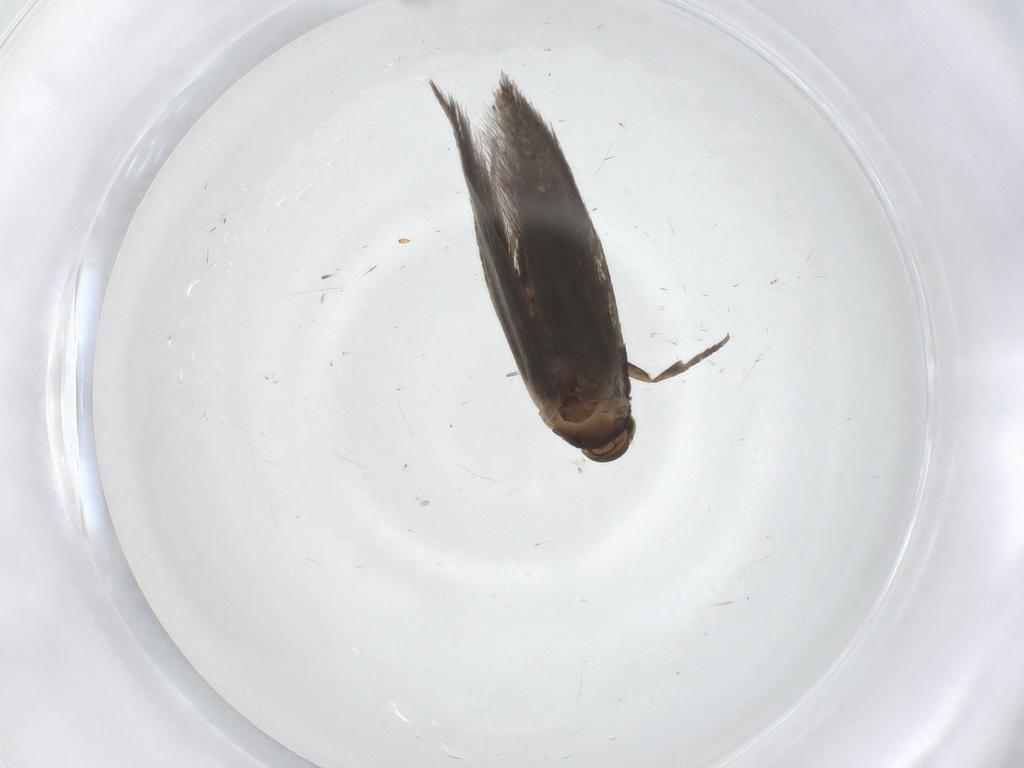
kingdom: Animalia
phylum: Arthropoda
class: Insecta
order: Lepidoptera
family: Elachistidae
